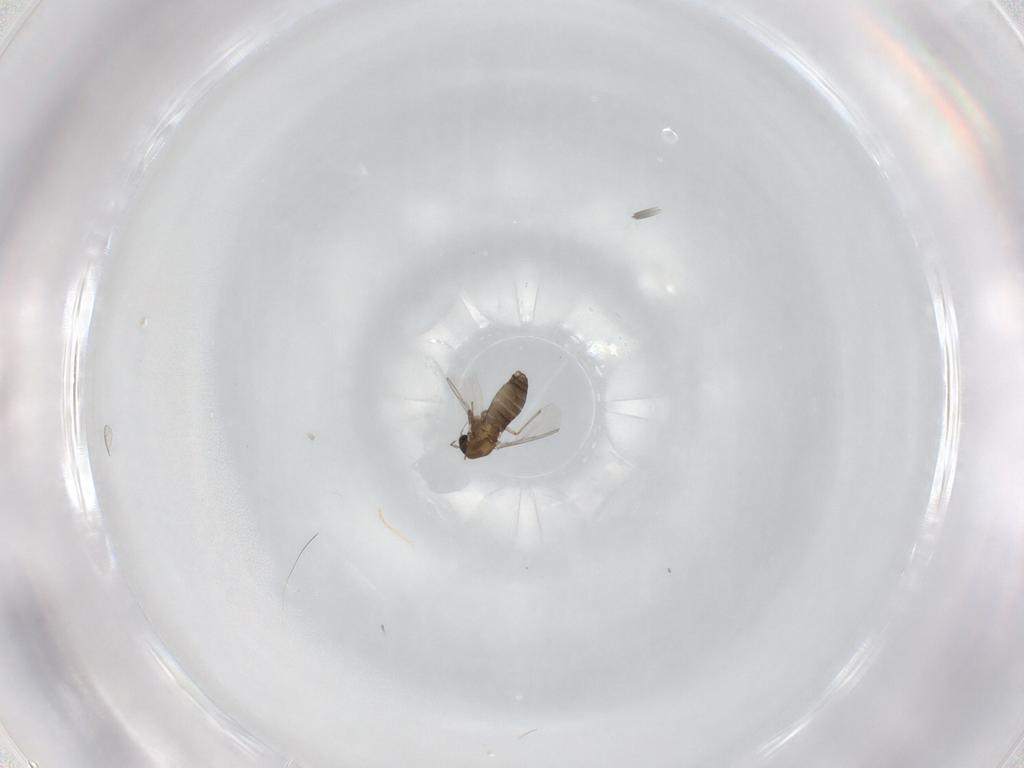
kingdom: Animalia
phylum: Arthropoda
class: Insecta
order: Diptera
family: Chironomidae
